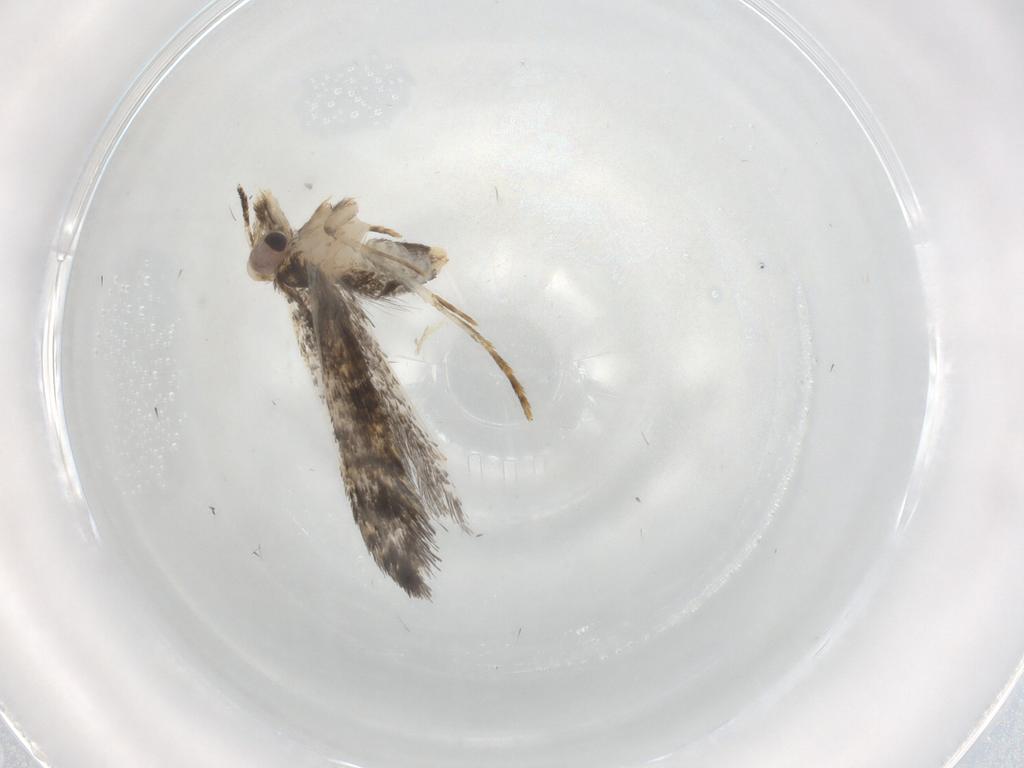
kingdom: Animalia
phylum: Arthropoda
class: Insecta
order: Lepidoptera
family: Tineidae
